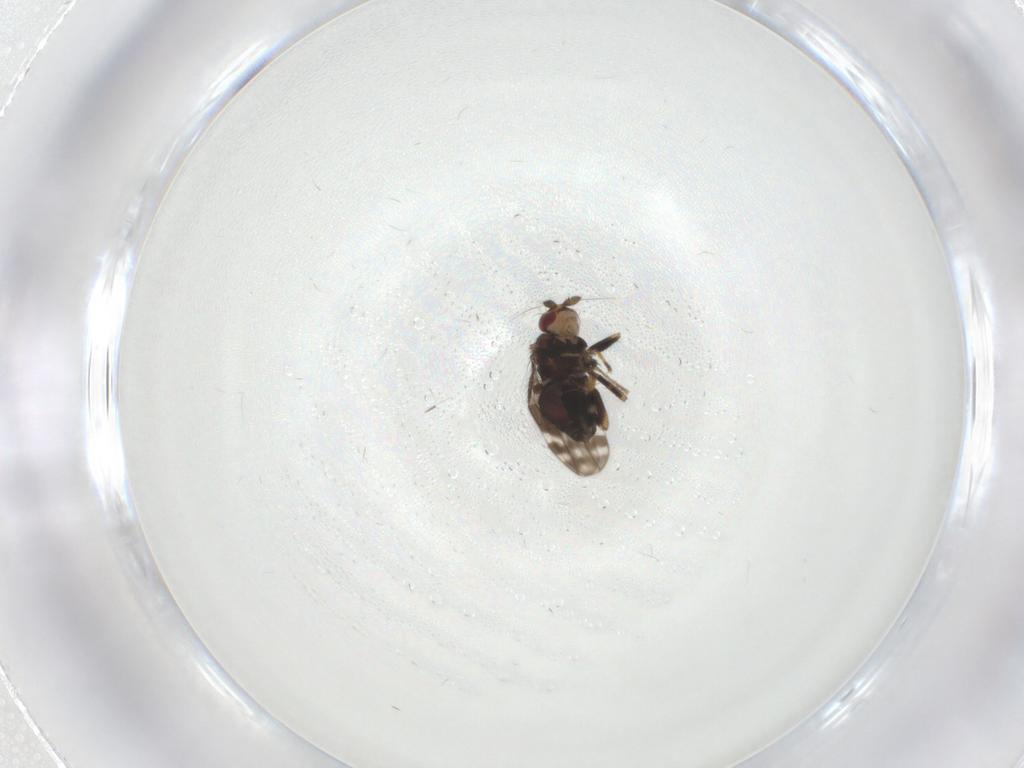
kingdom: Animalia
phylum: Arthropoda
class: Insecta
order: Diptera
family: Sphaeroceridae
